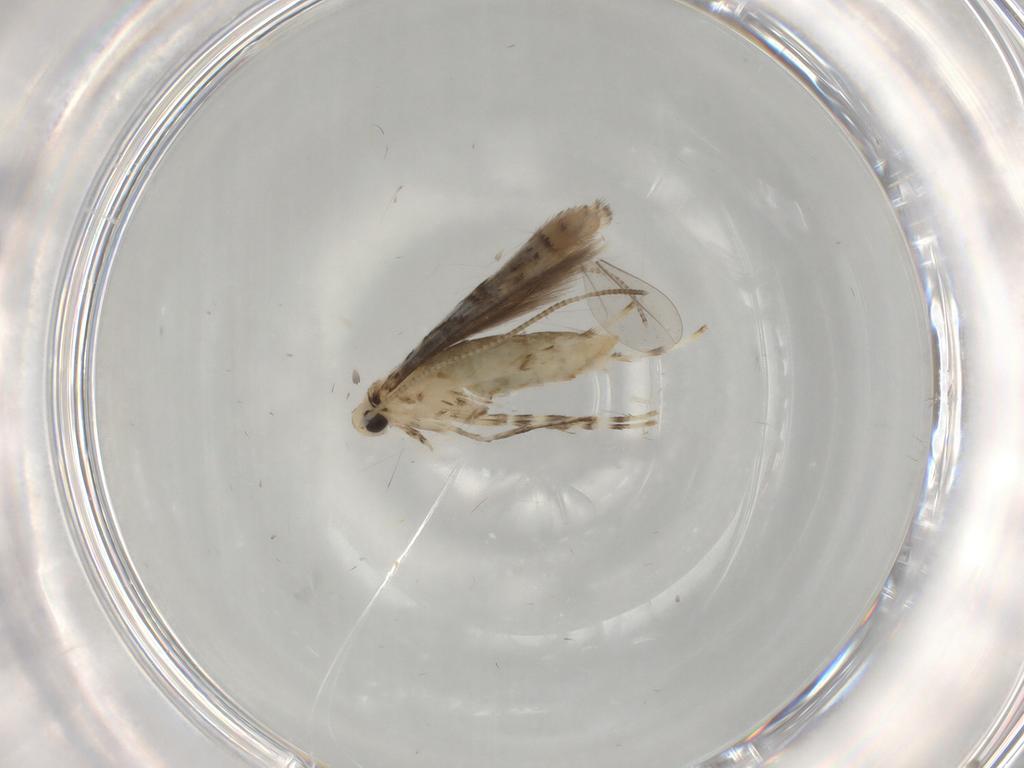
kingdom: Animalia
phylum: Arthropoda
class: Insecta
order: Lepidoptera
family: Gracillariidae
